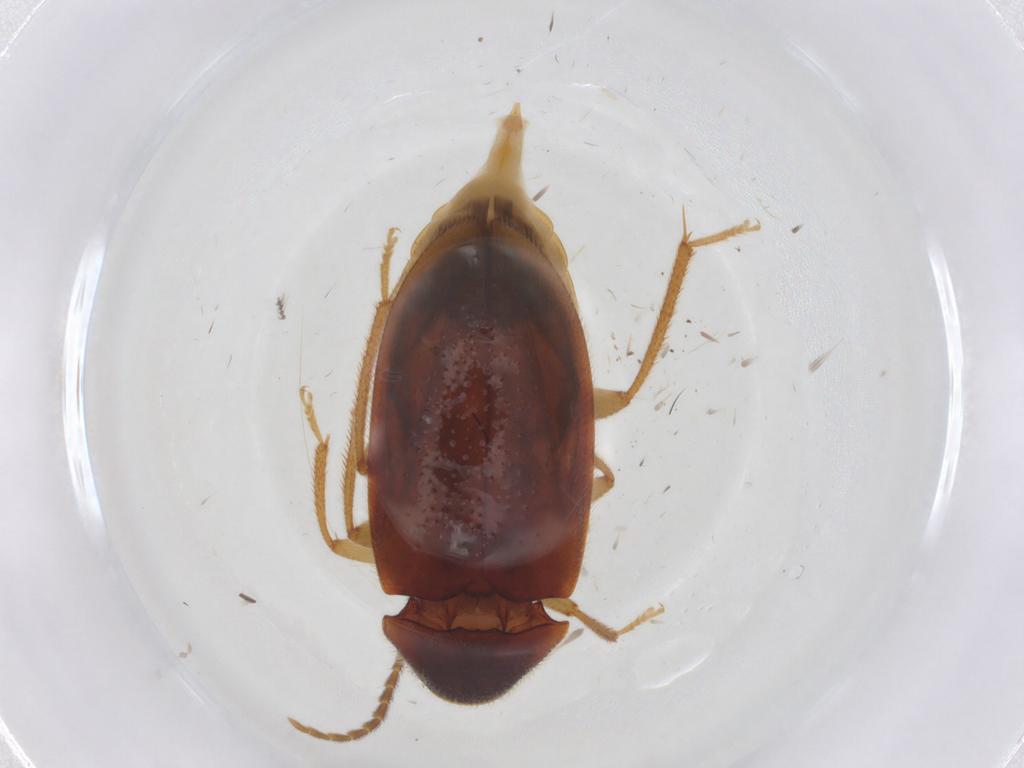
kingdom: Animalia
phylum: Arthropoda
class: Insecta
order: Coleoptera
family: Ptilodactylidae
